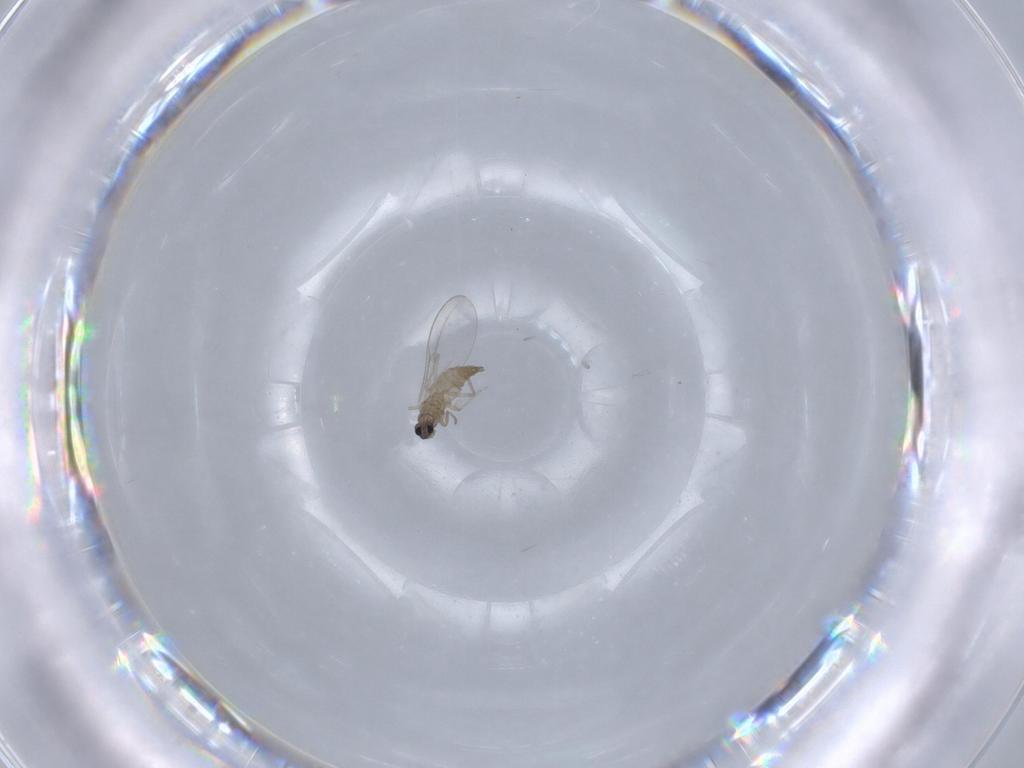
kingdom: Animalia
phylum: Arthropoda
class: Insecta
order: Diptera
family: Cecidomyiidae
